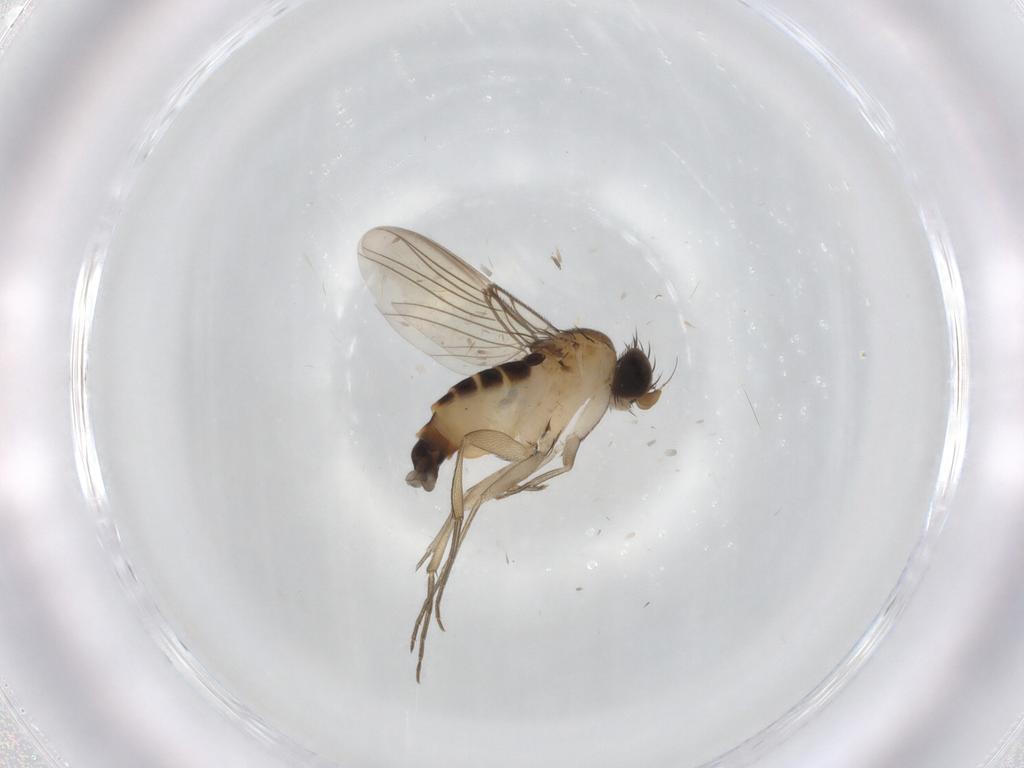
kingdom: Animalia
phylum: Arthropoda
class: Insecta
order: Diptera
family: Phoridae
